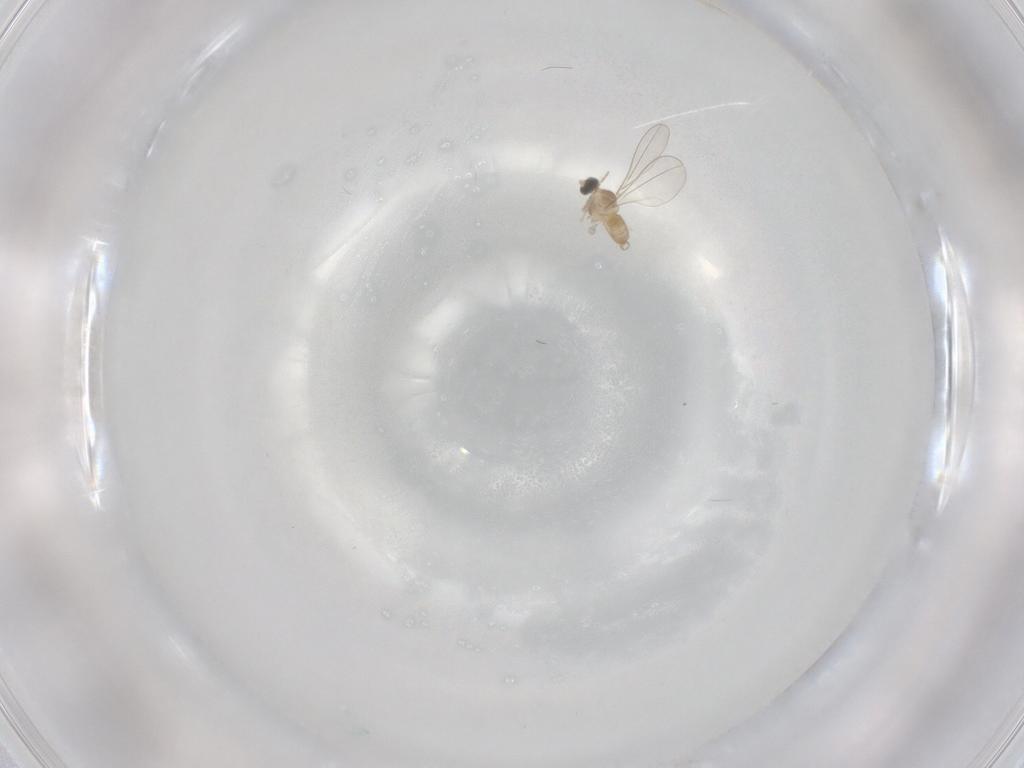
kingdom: Animalia
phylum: Arthropoda
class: Insecta
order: Diptera
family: Cecidomyiidae
